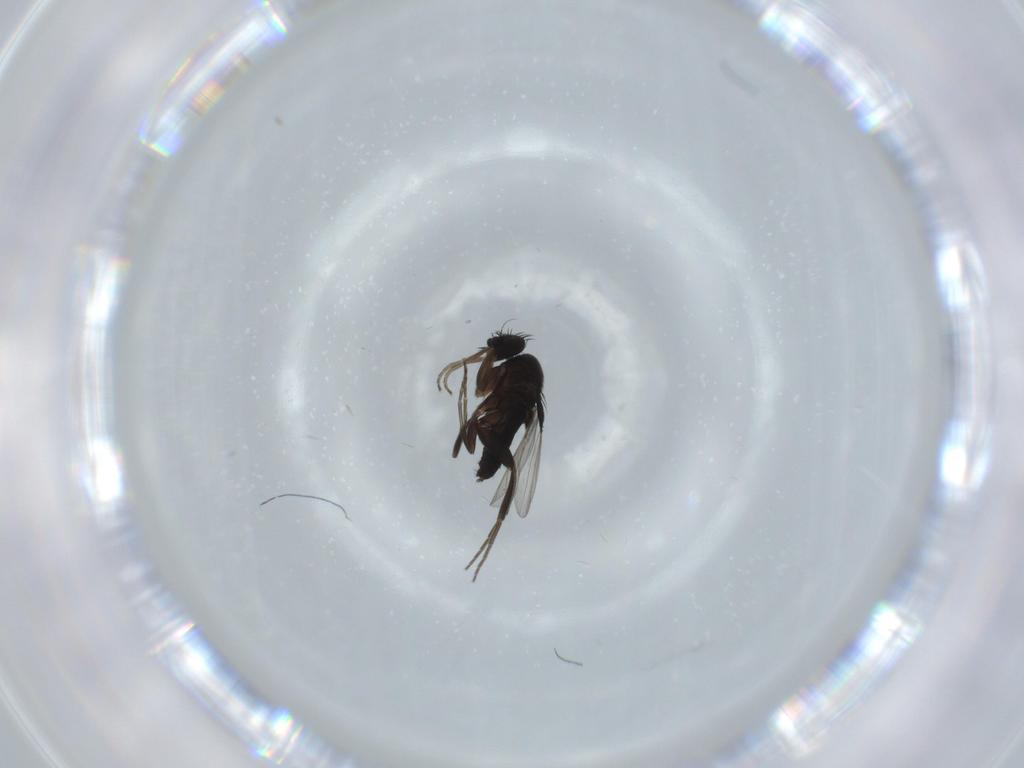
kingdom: Animalia
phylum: Arthropoda
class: Insecta
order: Diptera
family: Phoridae
